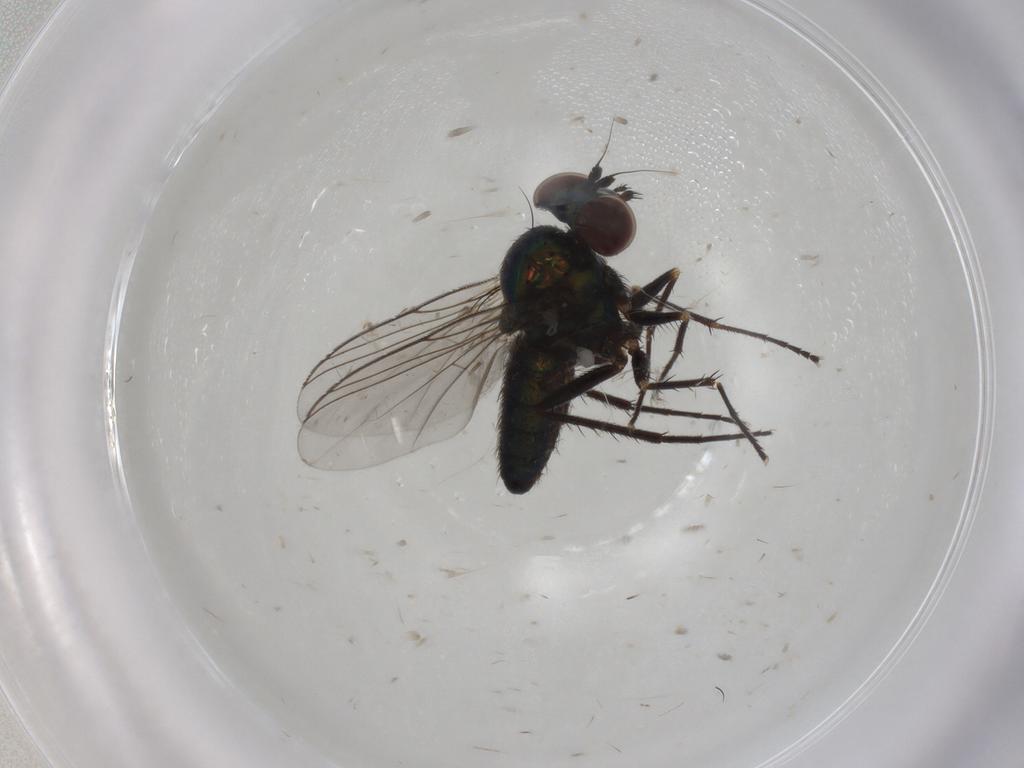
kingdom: Animalia
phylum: Arthropoda
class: Insecta
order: Diptera
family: Dolichopodidae
